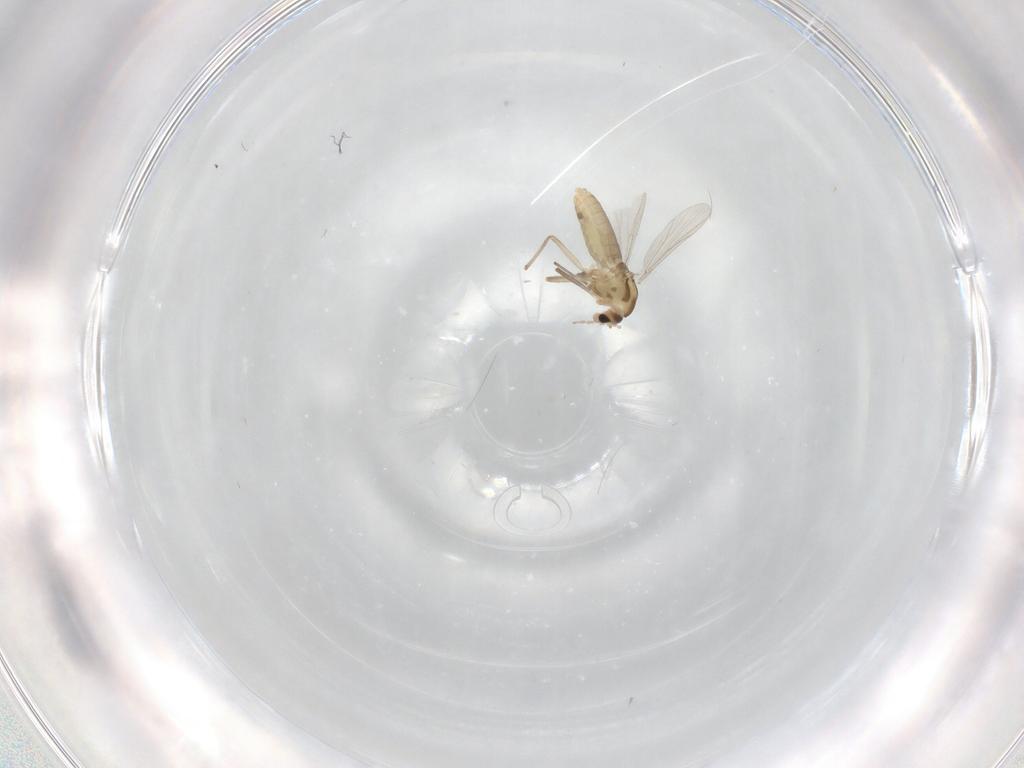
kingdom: Animalia
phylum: Arthropoda
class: Insecta
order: Diptera
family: Chironomidae
